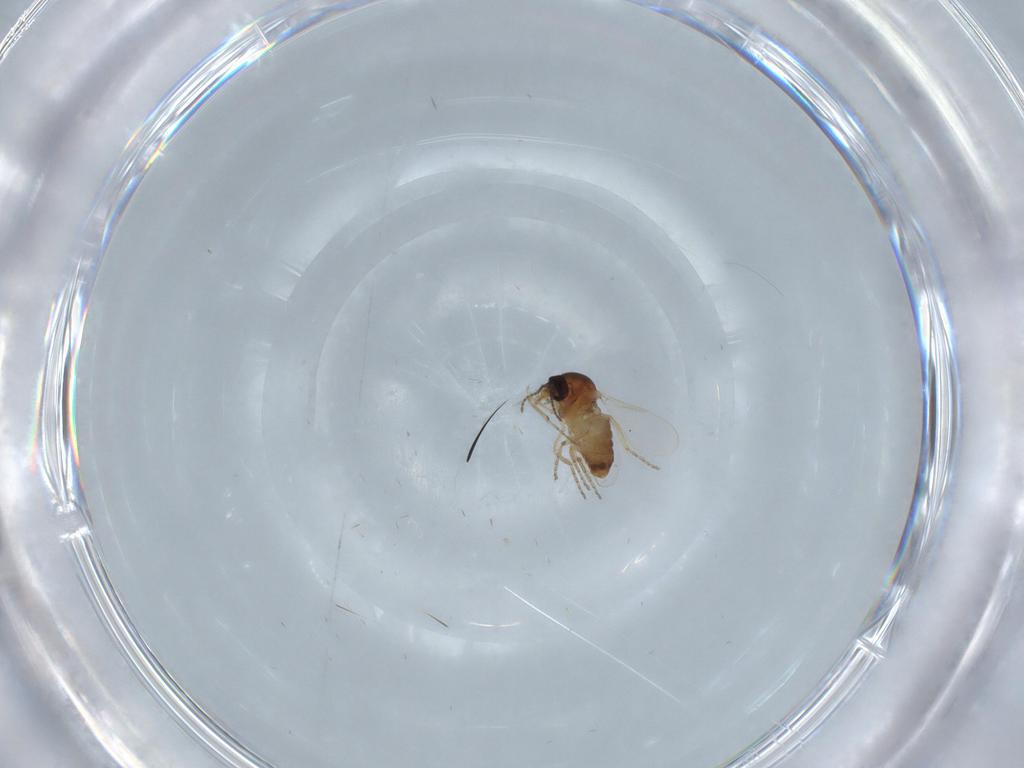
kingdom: Animalia
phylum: Arthropoda
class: Insecta
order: Diptera
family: Ceratopogonidae
